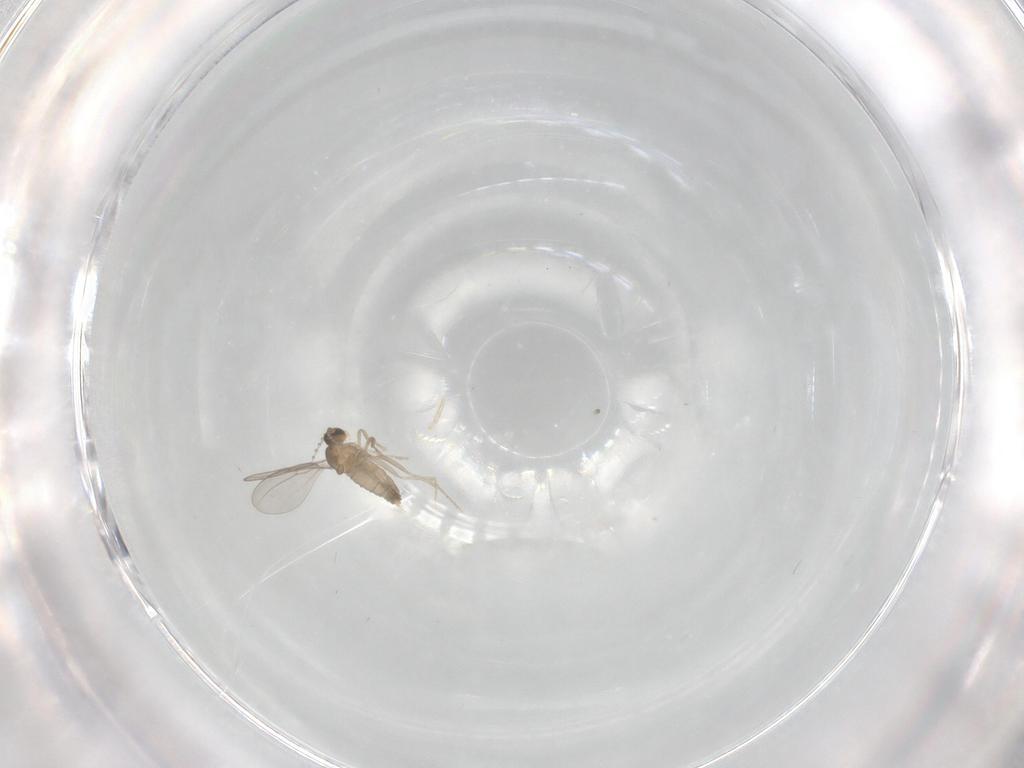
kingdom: Animalia
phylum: Arthropoda
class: Insecta
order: Diptera
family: Cecidomyiidae
